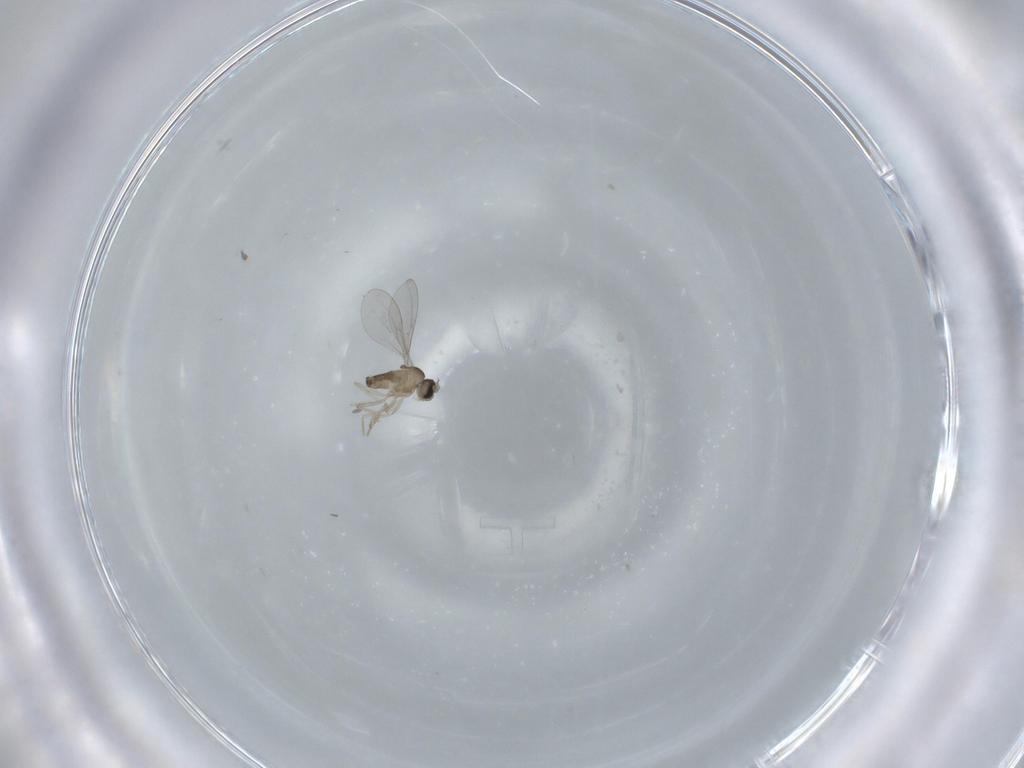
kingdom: Animalia
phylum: Arthropoda
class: Insecta
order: Diptera
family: Cecidomyiidae
